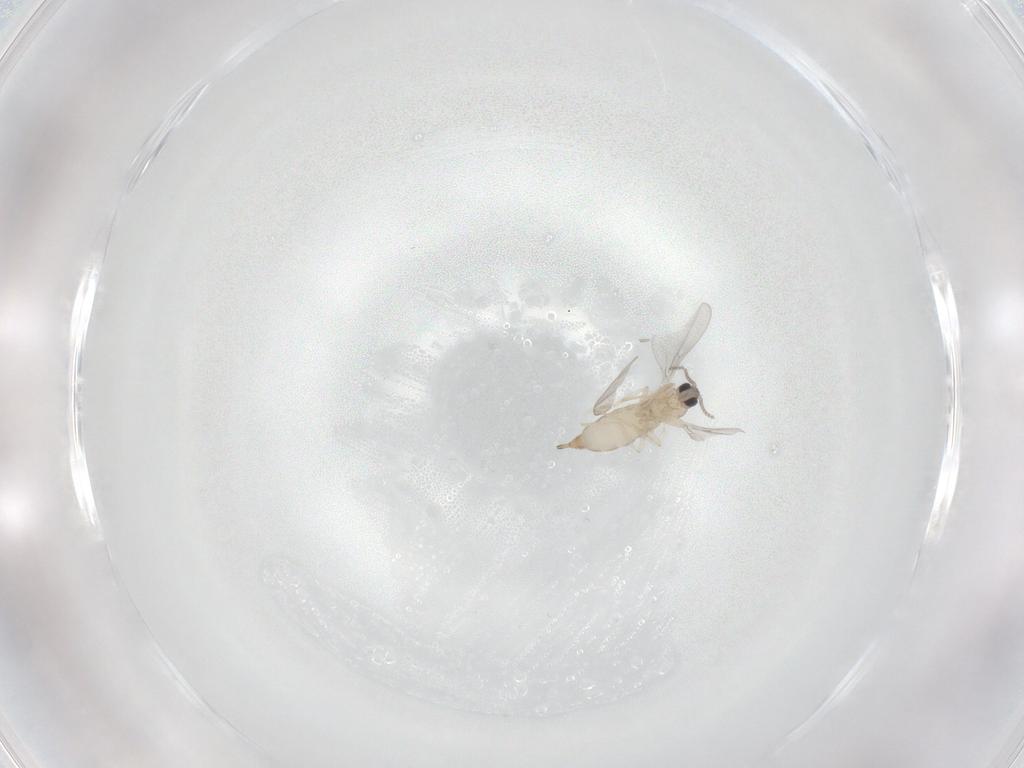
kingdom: Animalia
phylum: Arthropoda
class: Insecta
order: Diptera
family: Cecidomyiidae
